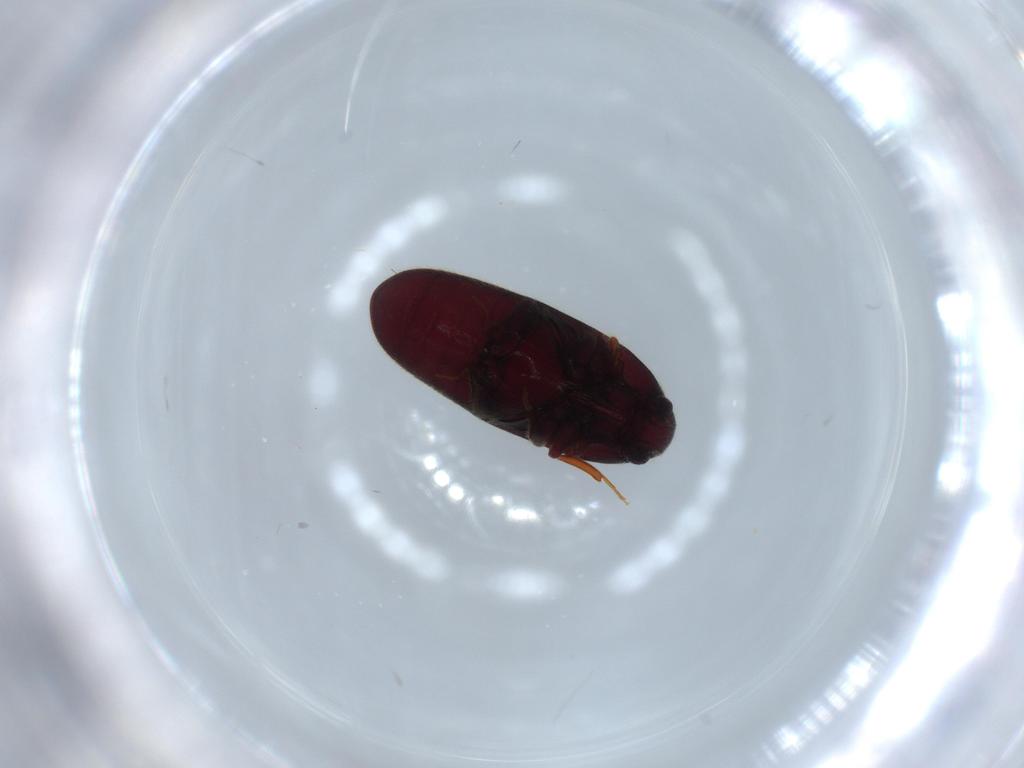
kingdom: Animalia
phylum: Arthropoda
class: Insecta
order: Coleoptera
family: Throscidae
